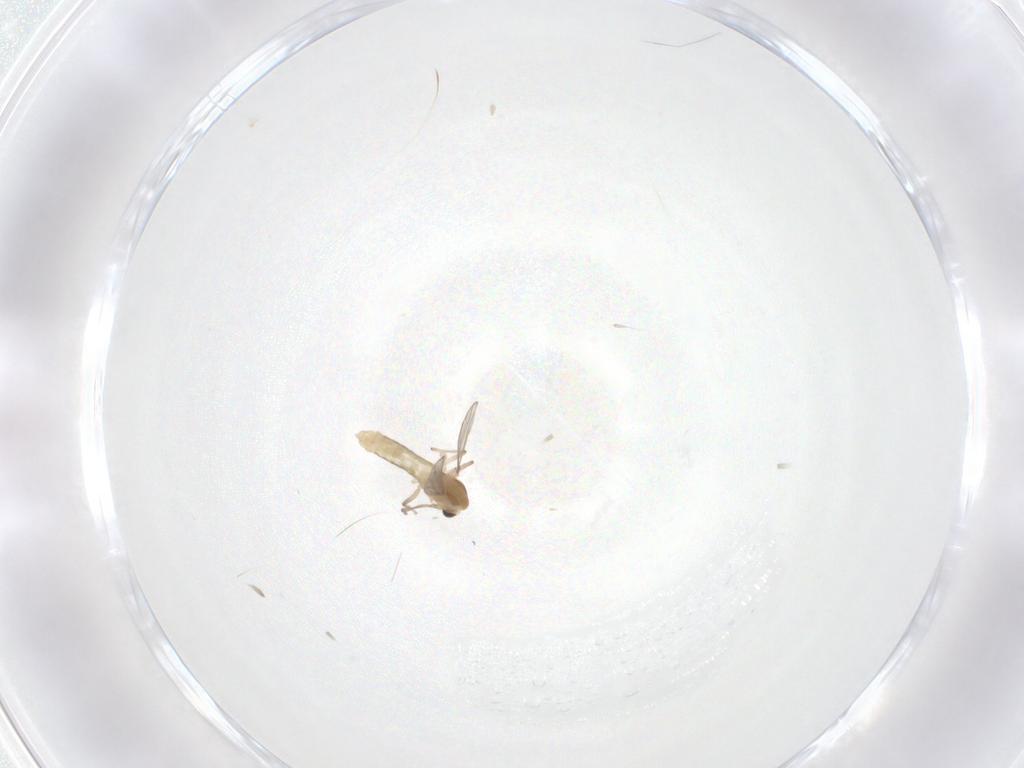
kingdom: Animalia
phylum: Arthropoda
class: Insecta
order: Diptera
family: Chironomidae
